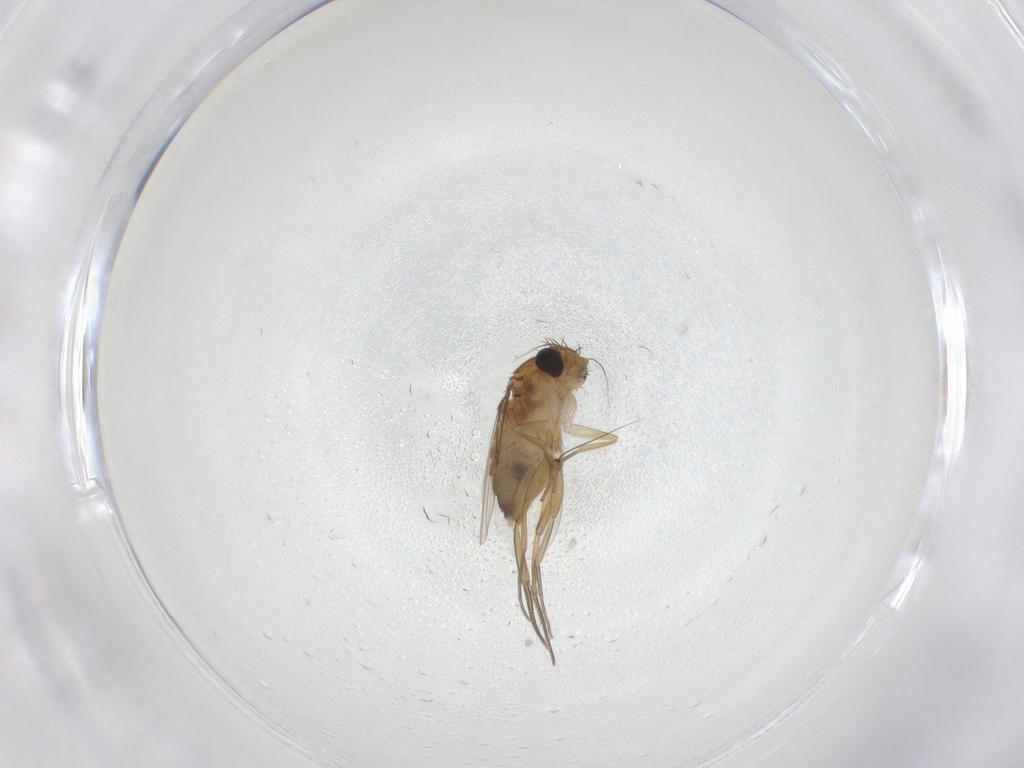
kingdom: Animalia
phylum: Arthropoda
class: Insecta
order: Diptera
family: Phoridae
